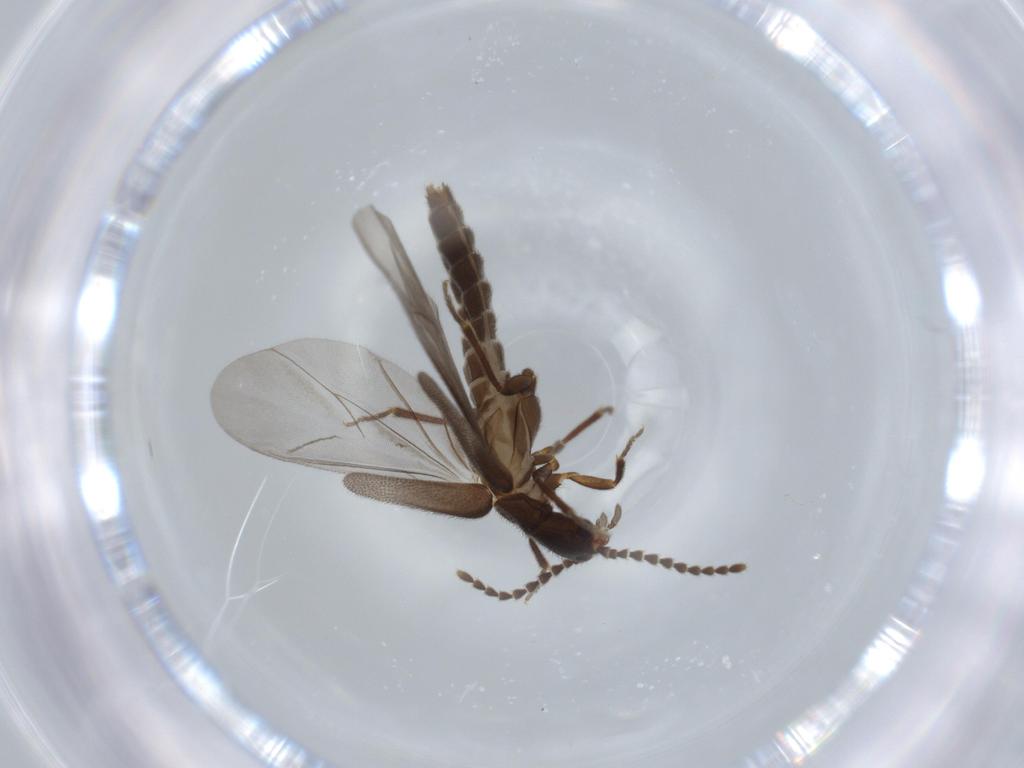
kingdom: Animalia
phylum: Arthropoda
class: Insecta
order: Coleoptera
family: Omethidae
